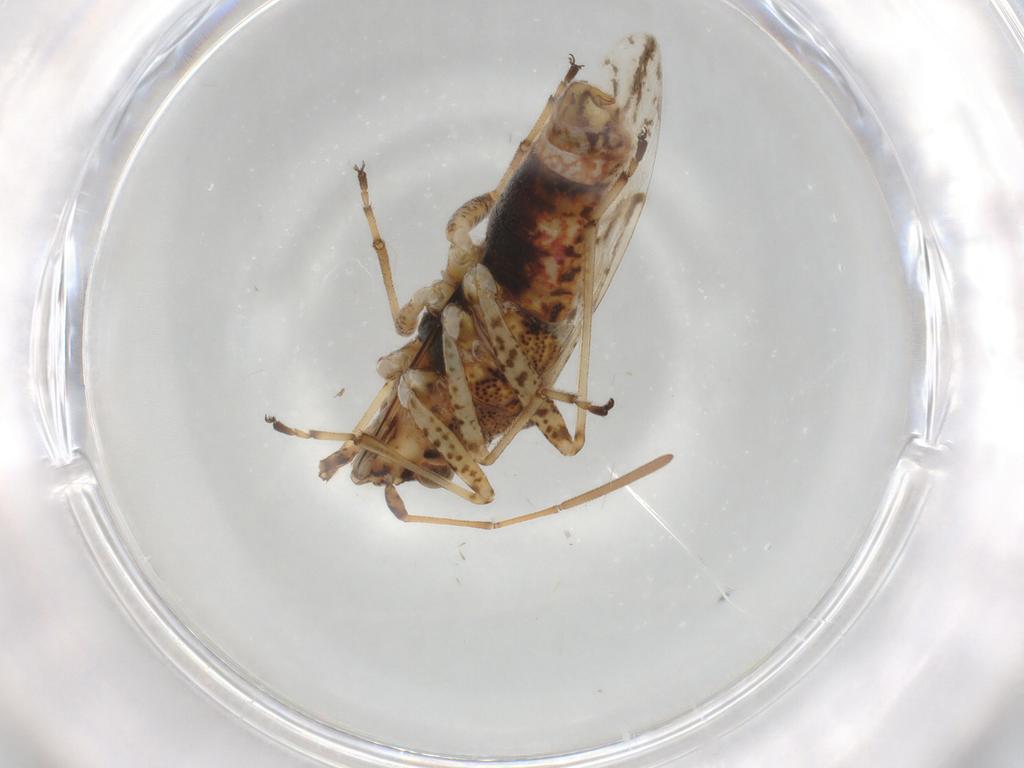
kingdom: Animalia
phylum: Arthropoda
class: Insecta
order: Hemiptera
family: Lygaeidae
